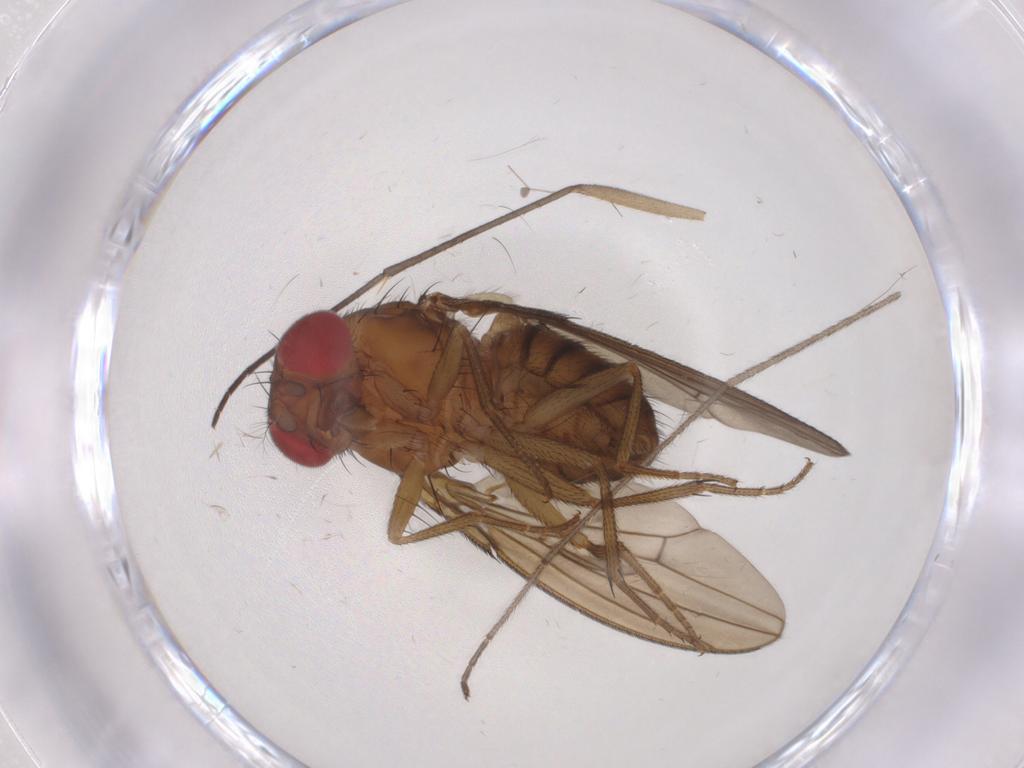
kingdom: Animalia
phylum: Arthropoda
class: Insecta
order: Diptera
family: Drosophilidae
